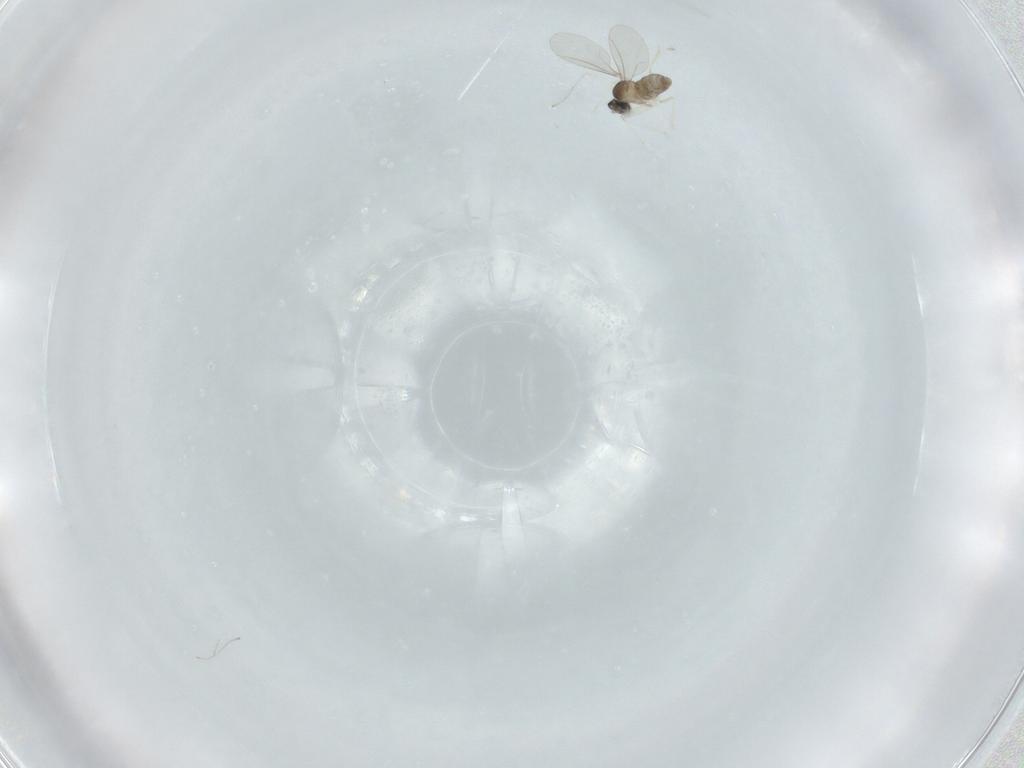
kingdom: Animalia
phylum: Arthropoda
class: Insecta
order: Diptera
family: Cecidomyiidae
